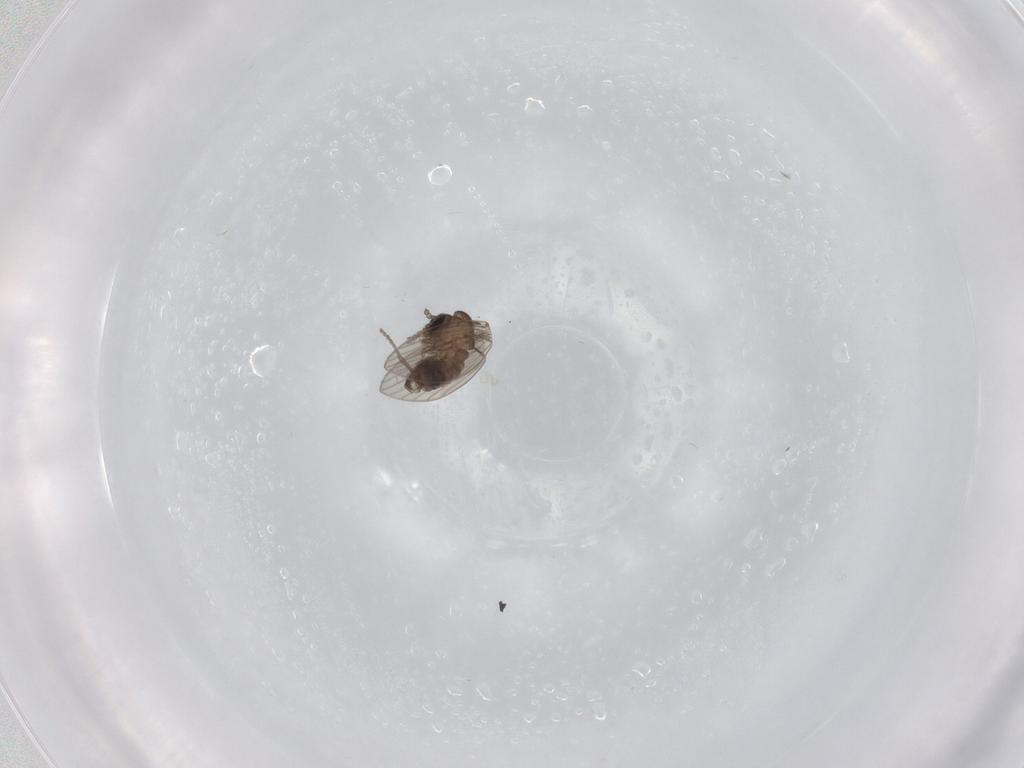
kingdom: Animalia
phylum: Arthropoda
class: Insecta
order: Diptera
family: Psychodidae
